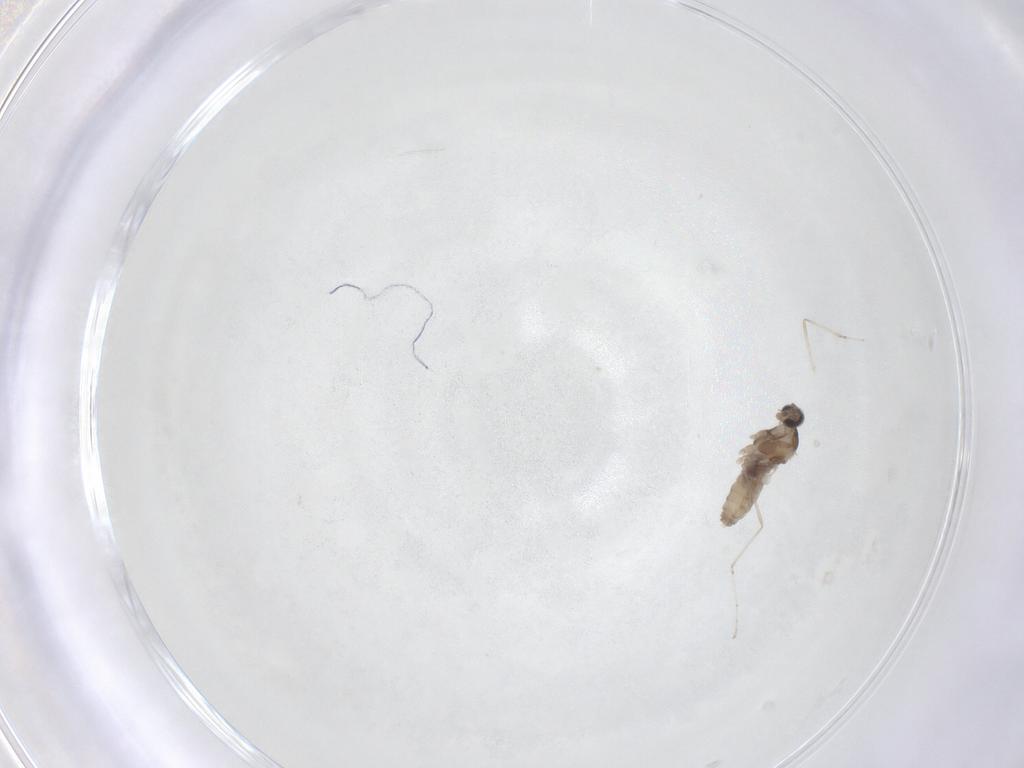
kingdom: Animalia
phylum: Arthropoda
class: Insecta
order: Diptera
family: Cecidomyiidae
